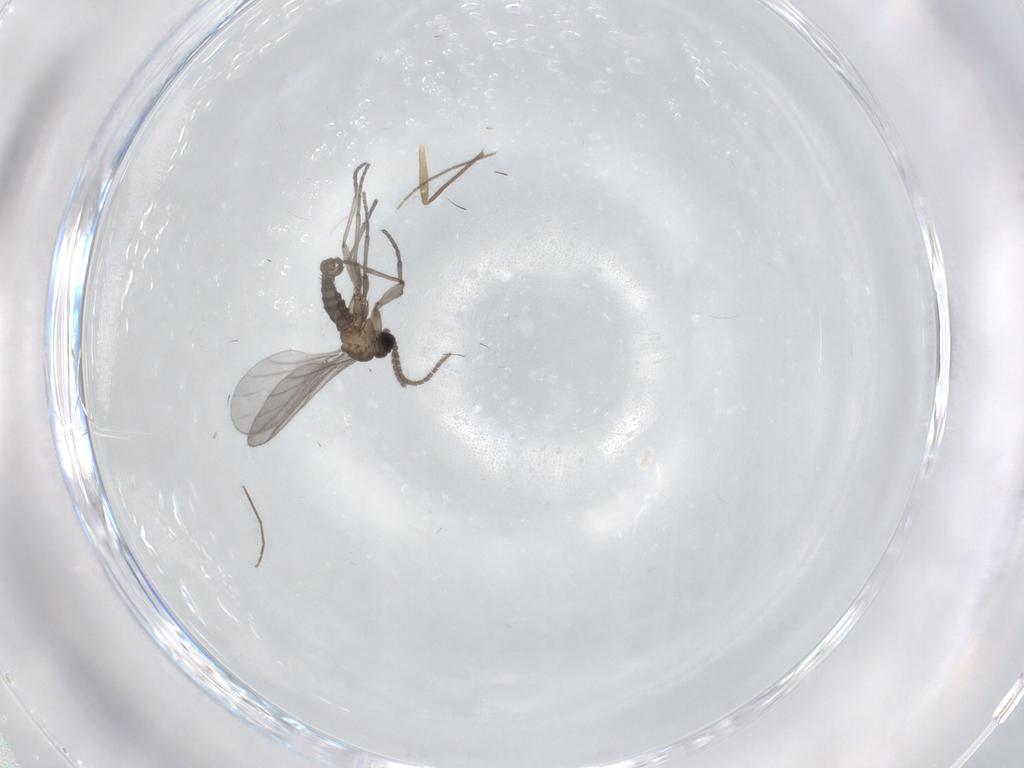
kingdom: Animalia
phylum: Arthropoda
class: Insecta
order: Diptera
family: Sciaridae
